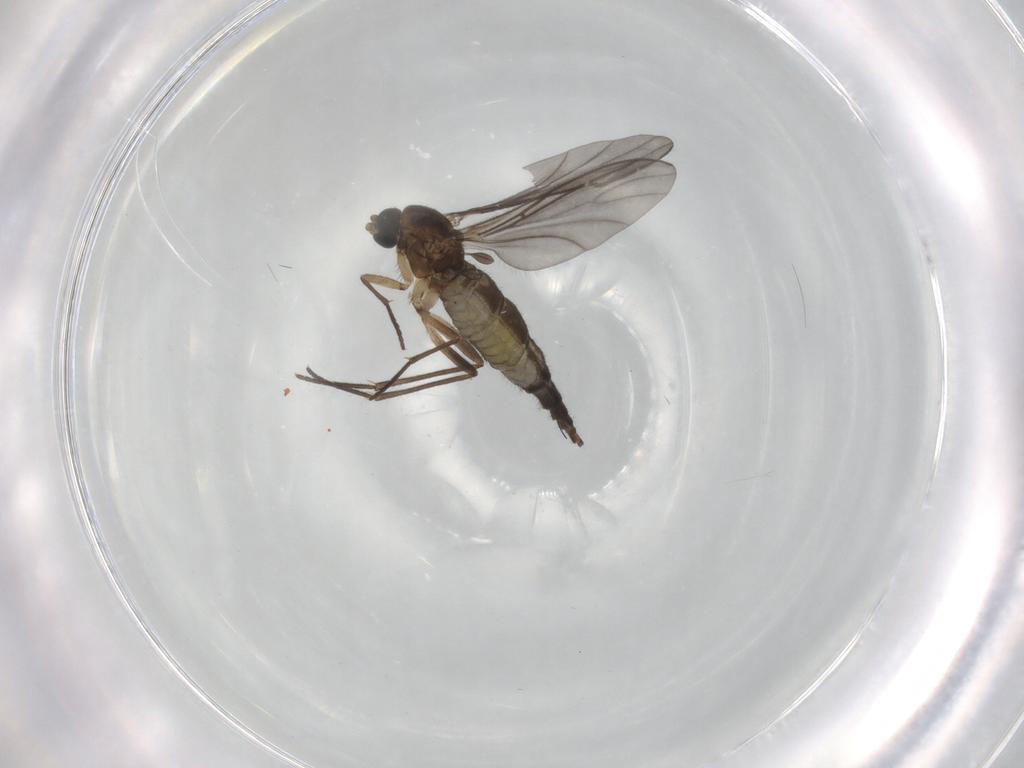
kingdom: Animalia
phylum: Arthropoda
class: Insecta
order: Diptera
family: Sciaridae
